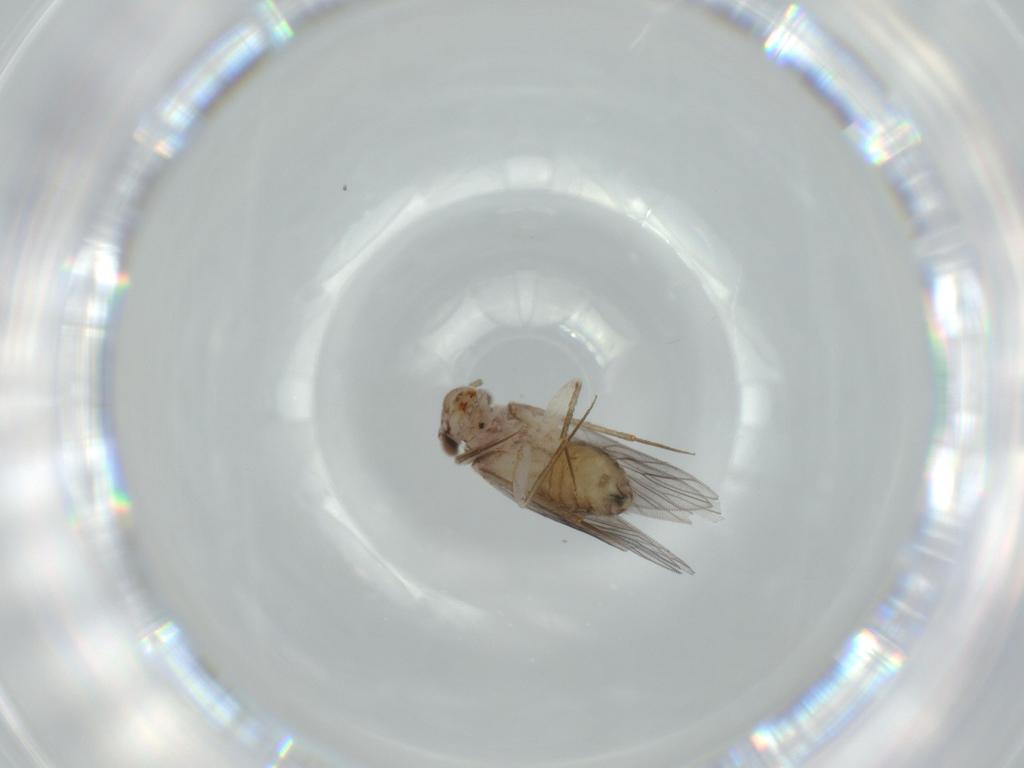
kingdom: Animalia
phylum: Arthropoda
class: Insecta
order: Psocodea
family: Lepidopsocidae
